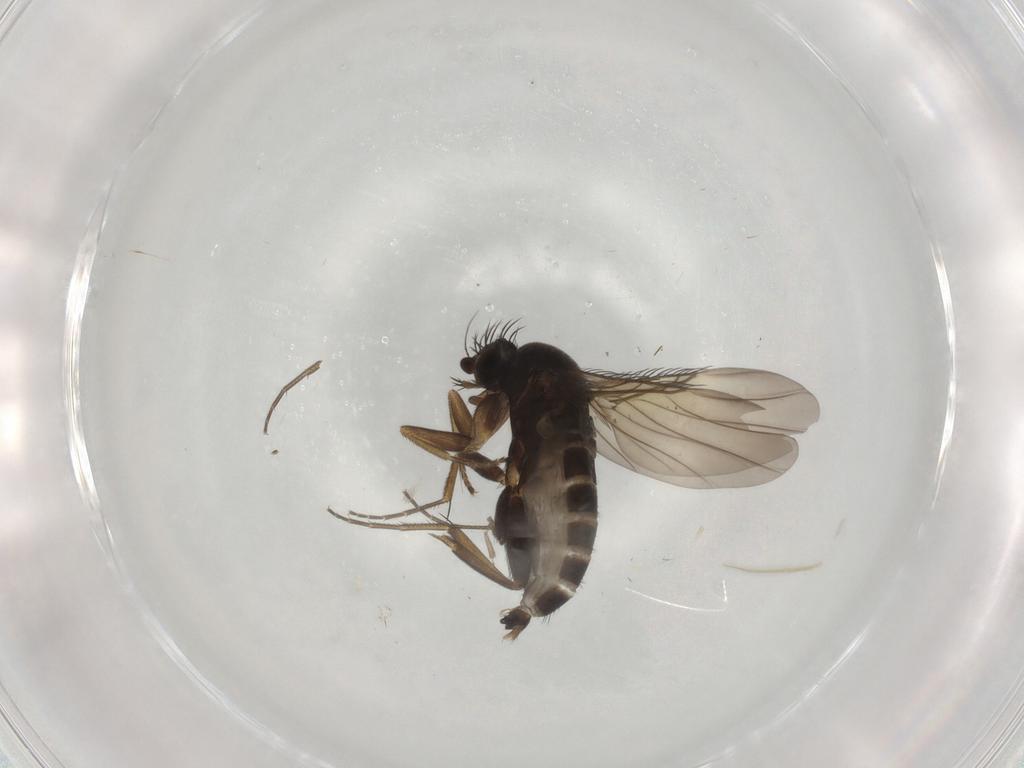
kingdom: Animalia
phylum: Arthropoda
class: Insecta
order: Diptera
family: Phoridae
